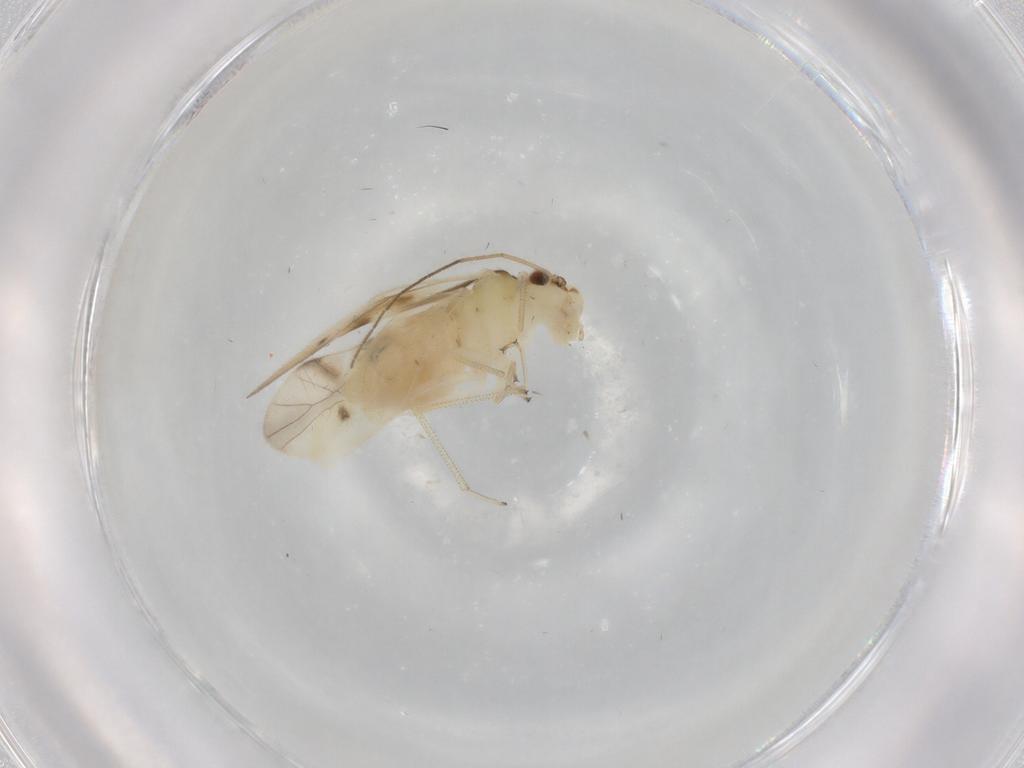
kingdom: Animalia
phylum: Arthropoda
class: Insecta
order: Psocodea
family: Caeciliusidae
